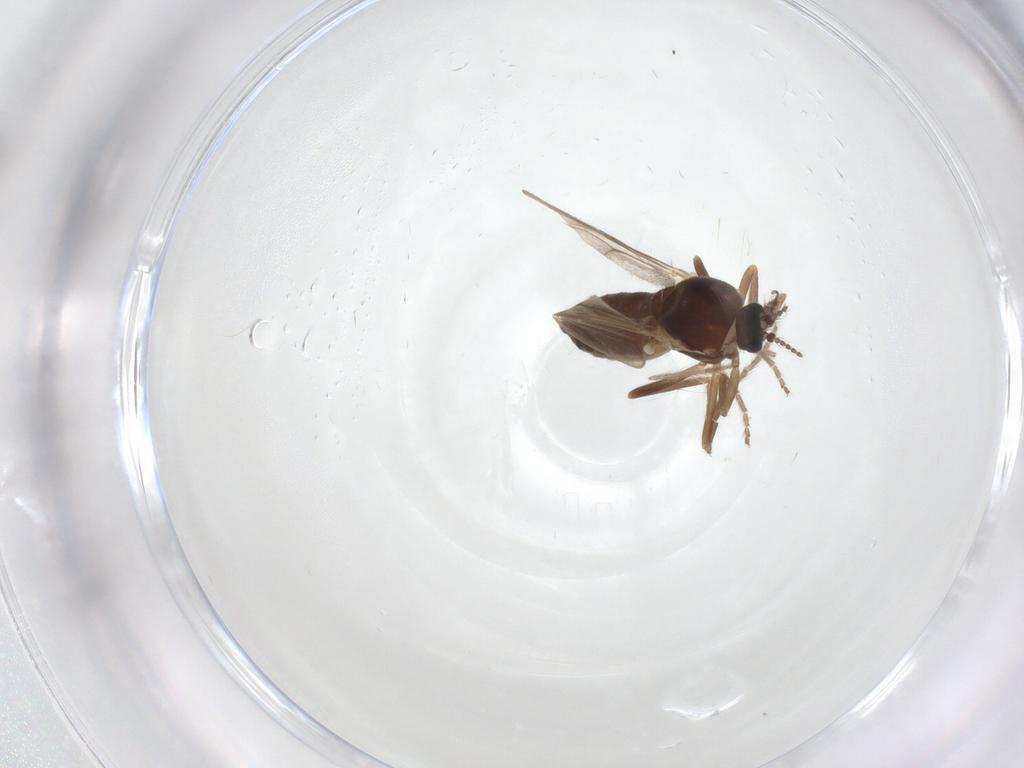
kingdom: Animalia
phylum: Arthropoda
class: Insecta
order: Diptera
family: Ceratopogonidae
